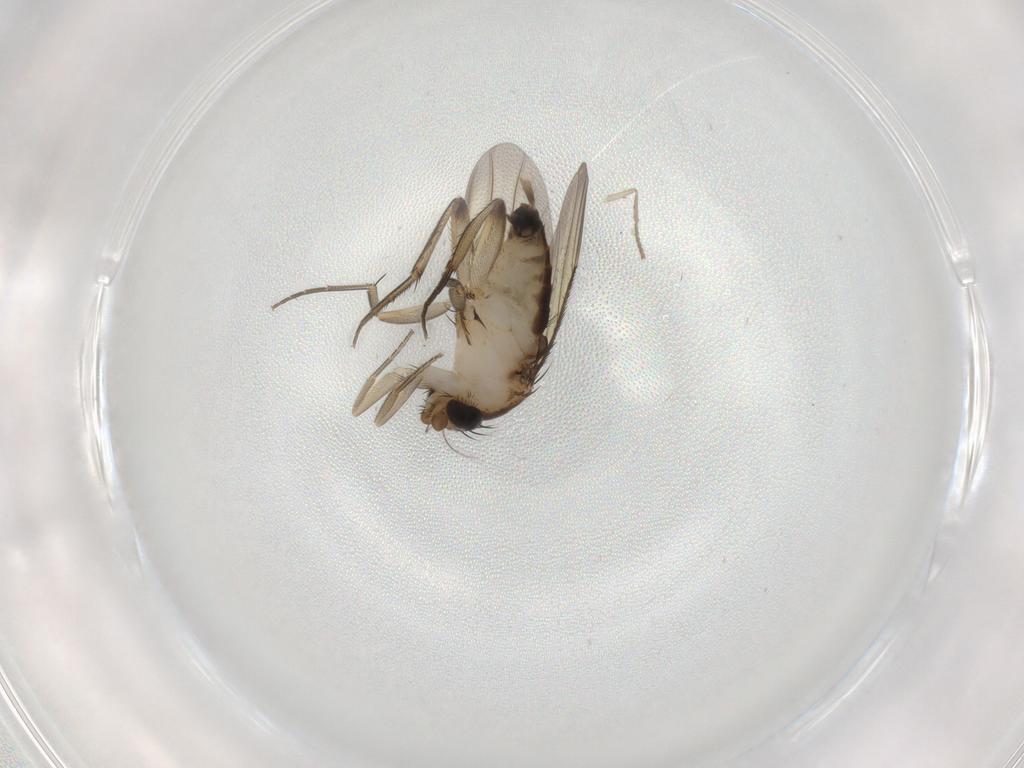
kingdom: Animalia
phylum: Arthropoda
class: Insecta
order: Diptera
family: Phoridae
